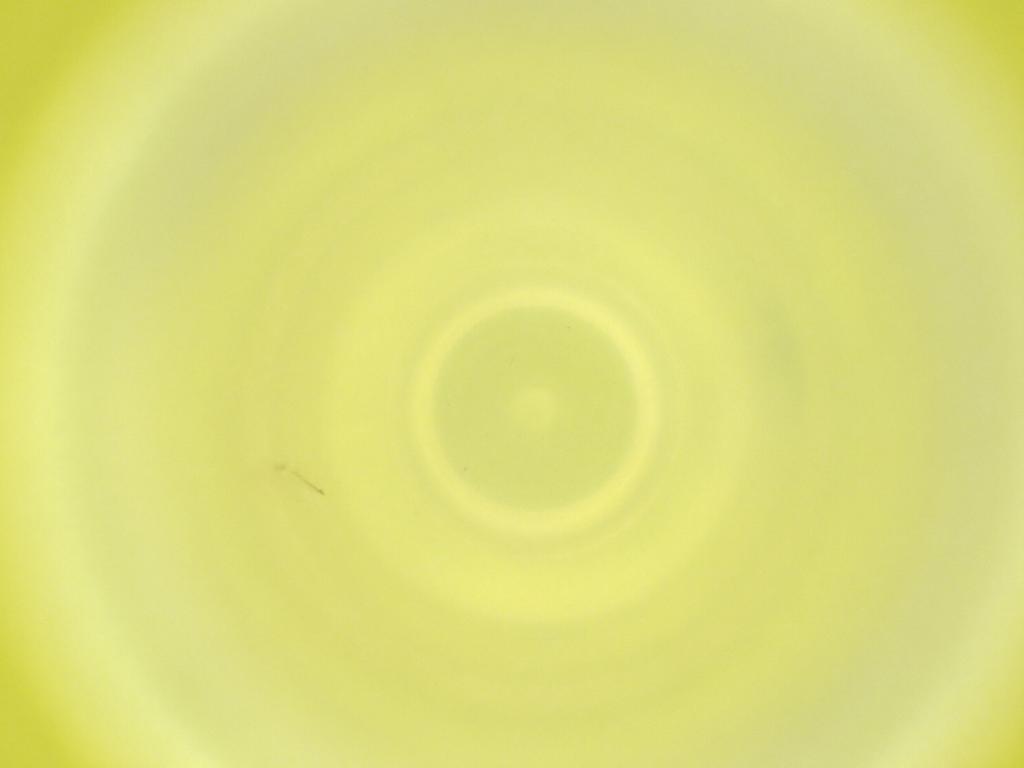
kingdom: Animalia
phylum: Arthropoda
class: Insecta
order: Diptera
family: Cecidomyiidae
